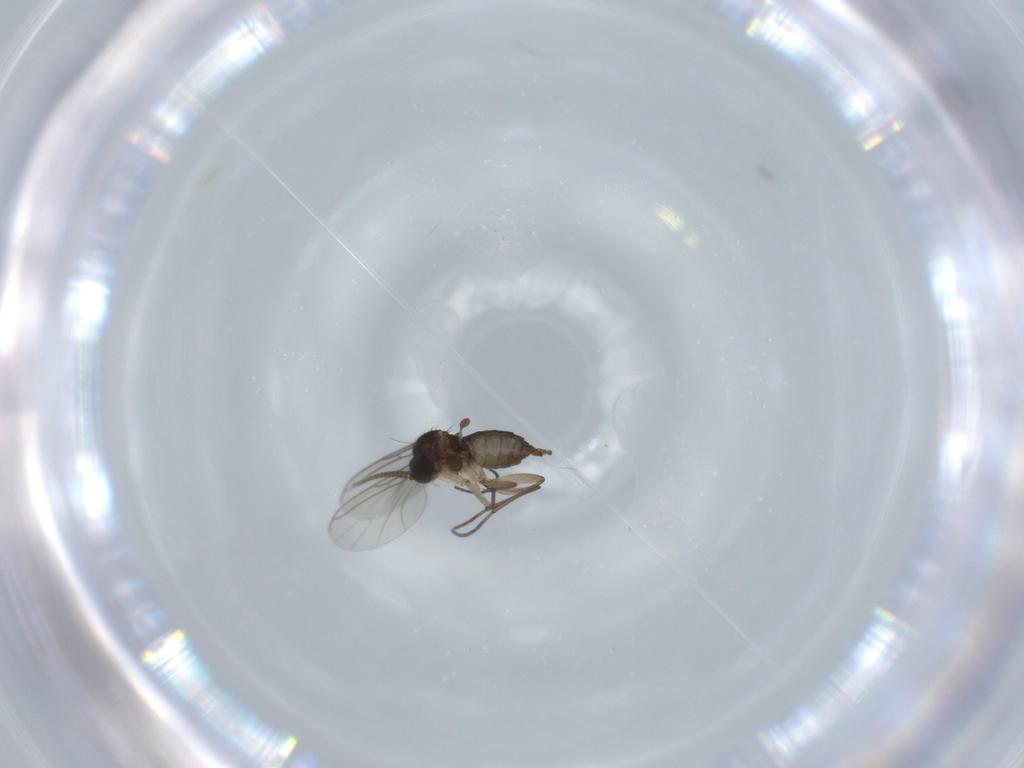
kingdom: Animalia
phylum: Arthropoda
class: Insecta
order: Diptera
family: Sciaridae
